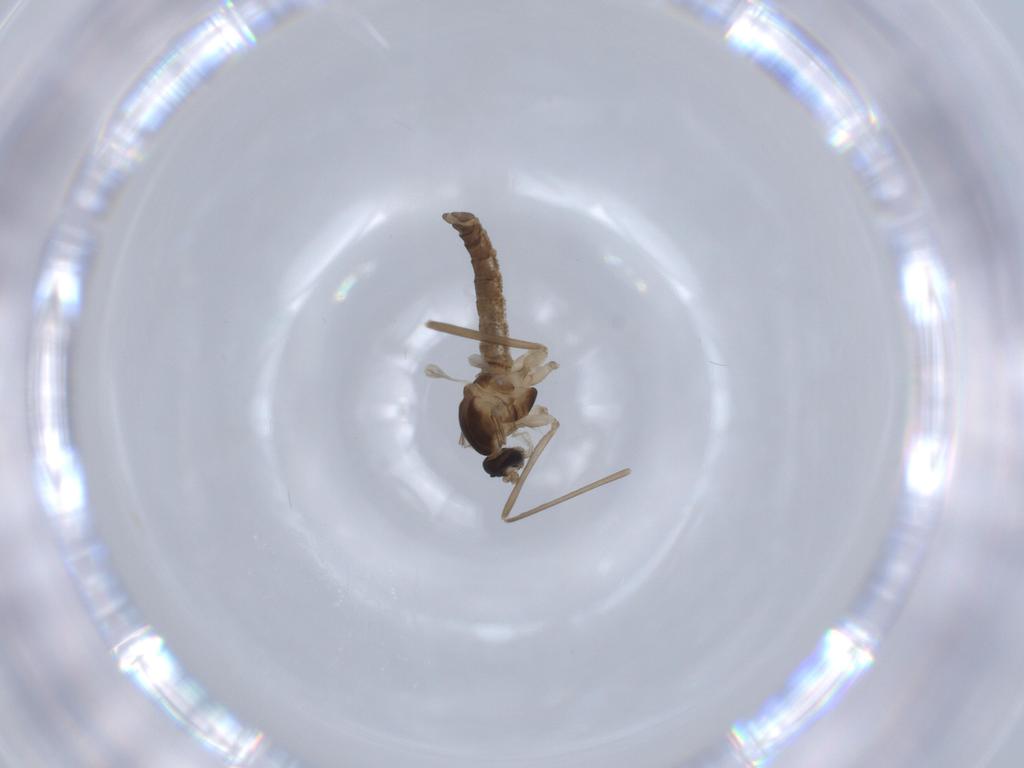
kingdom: Animalia
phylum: Arthropoda
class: Insecta
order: Diptera
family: Cecidomyiidae
